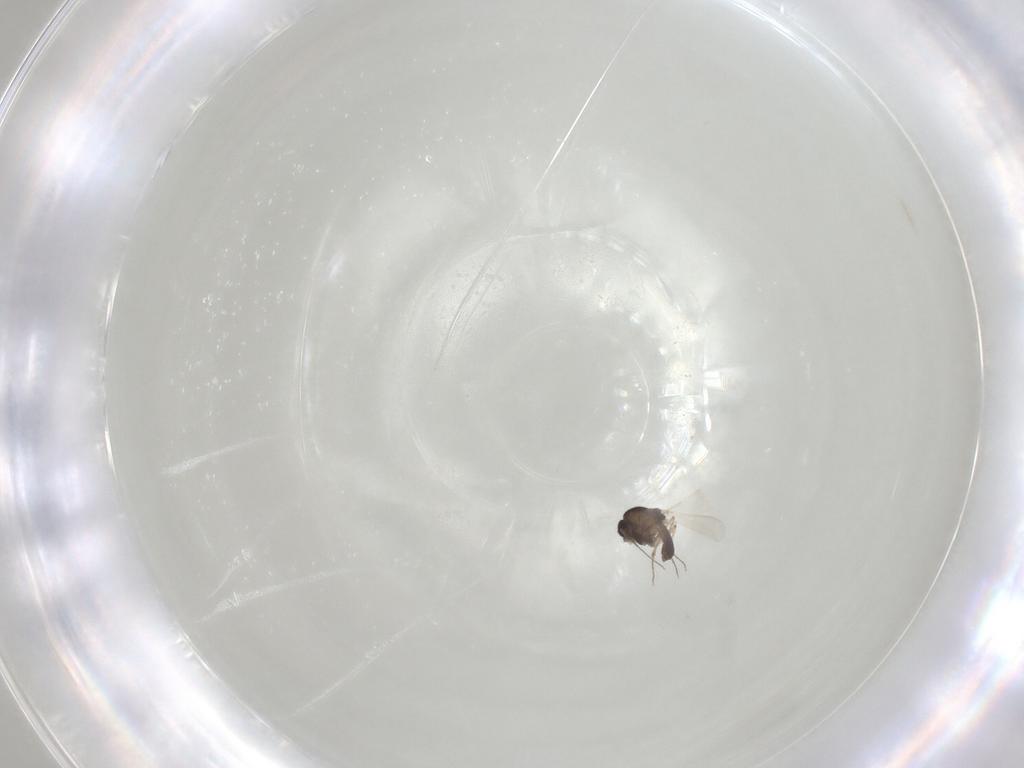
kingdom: Animalia
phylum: Arthropoda
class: Insecta
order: Diptera
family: Chironomidae
